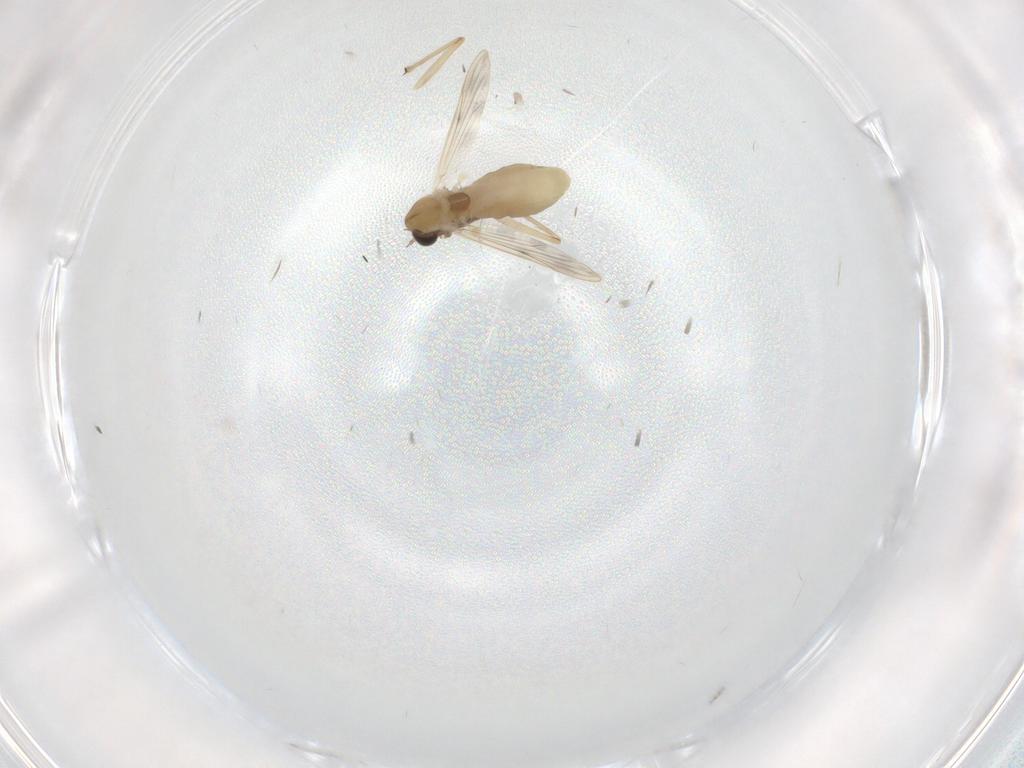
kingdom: Animalia
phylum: Arthropoda
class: Insecta
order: Diptera
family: Chironomidae
